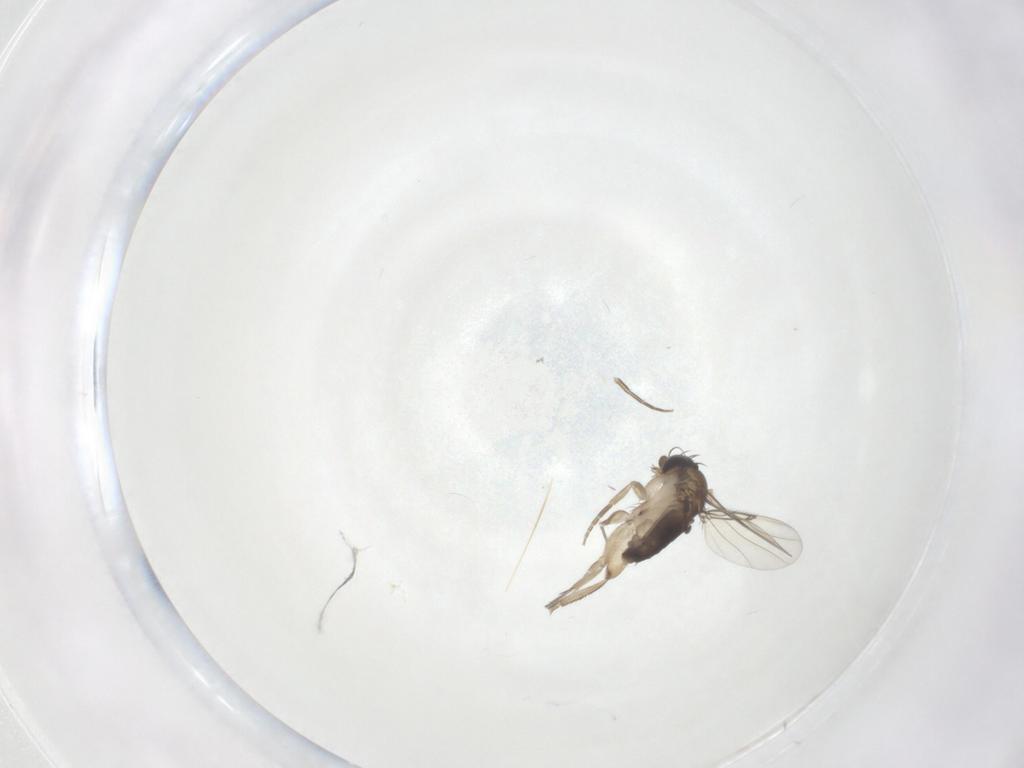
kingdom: Animalia
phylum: Arthropoda
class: Insecta
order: Diptera
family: Phoridae
